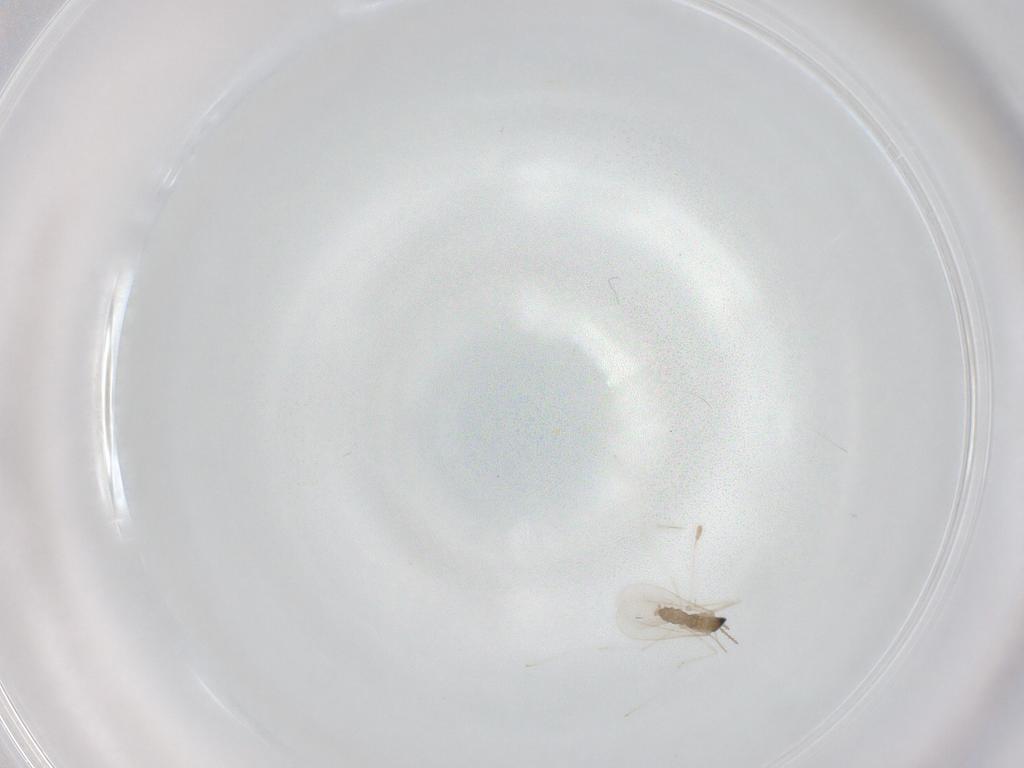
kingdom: Animalia
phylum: Arthropoda
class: Insecta
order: Diptera
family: Cecidomyiidae
